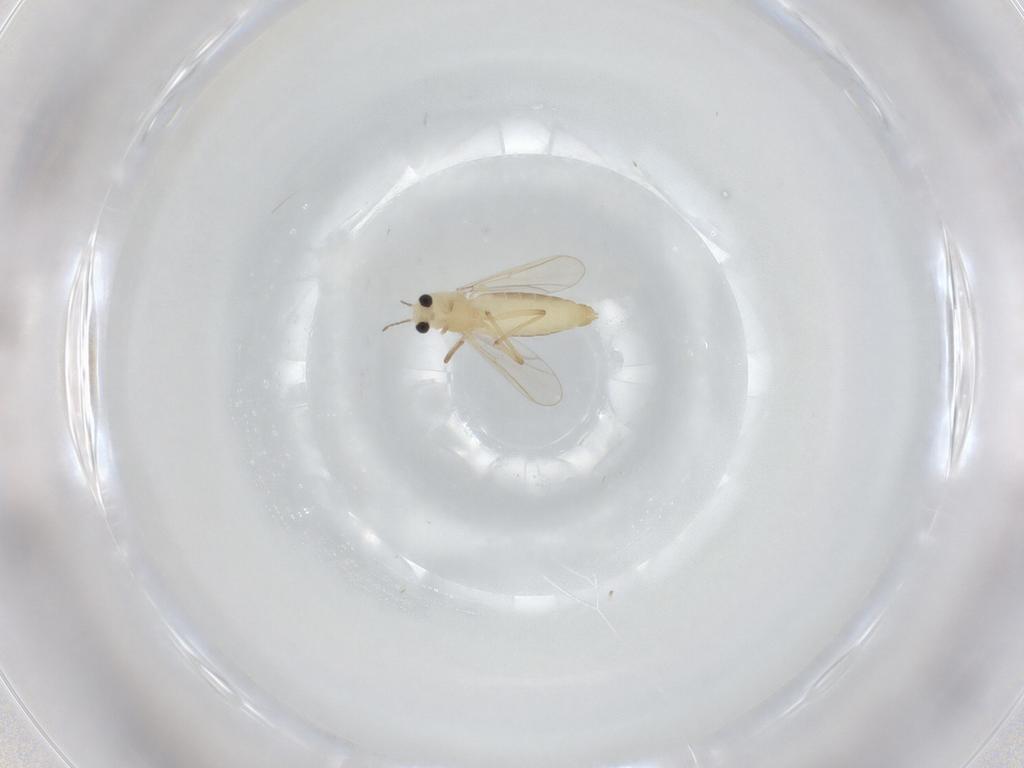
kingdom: Animalia
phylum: Arthropoda
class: Insecta
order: Diptera
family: Chironomidae
